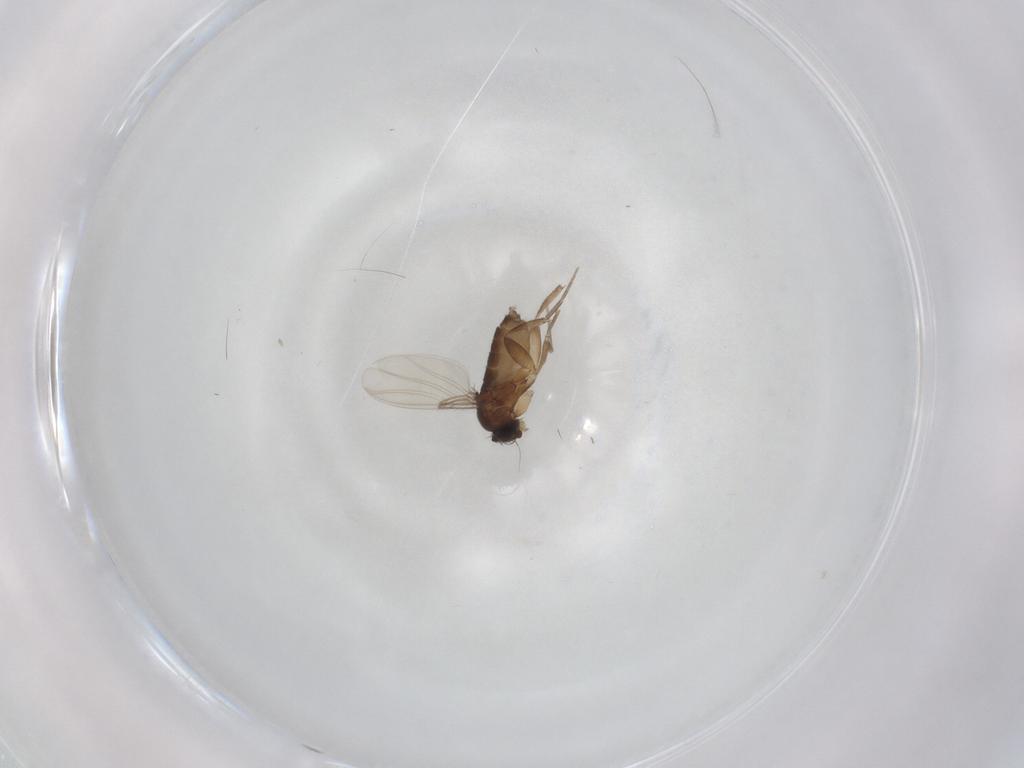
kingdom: Animalia
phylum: Arthropoda
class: Insecta
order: Diptera
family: Phoridae
